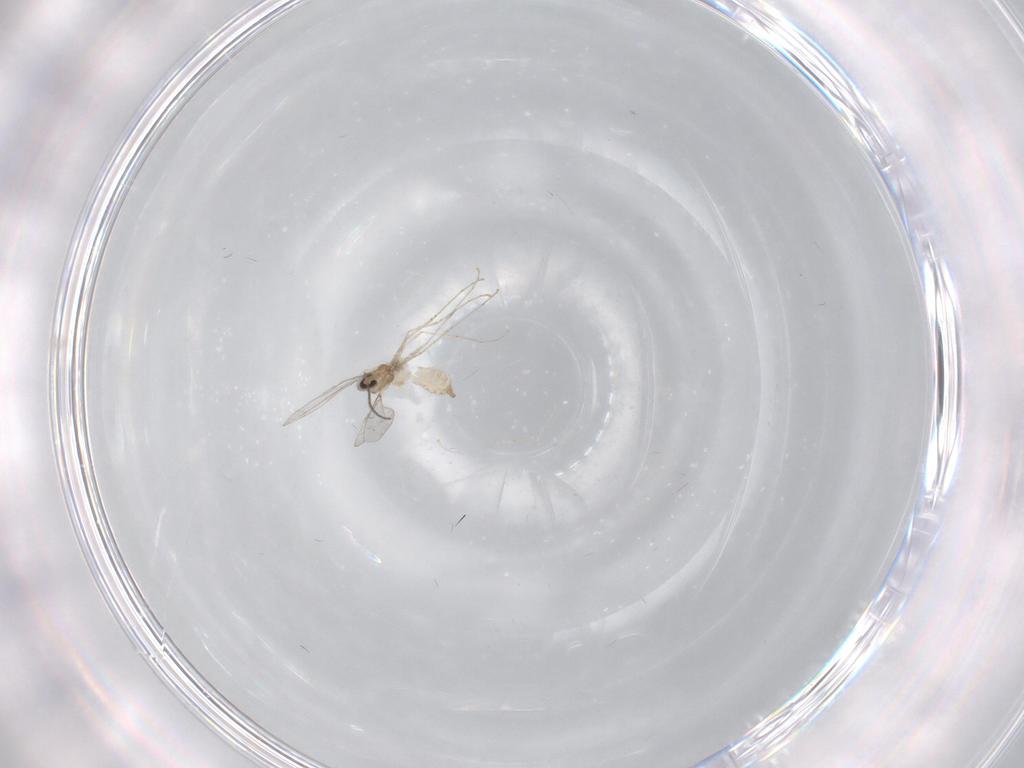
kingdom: Animalia
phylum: Arthropoda
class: Insecta
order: Diptera
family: Cecidomyiidae
